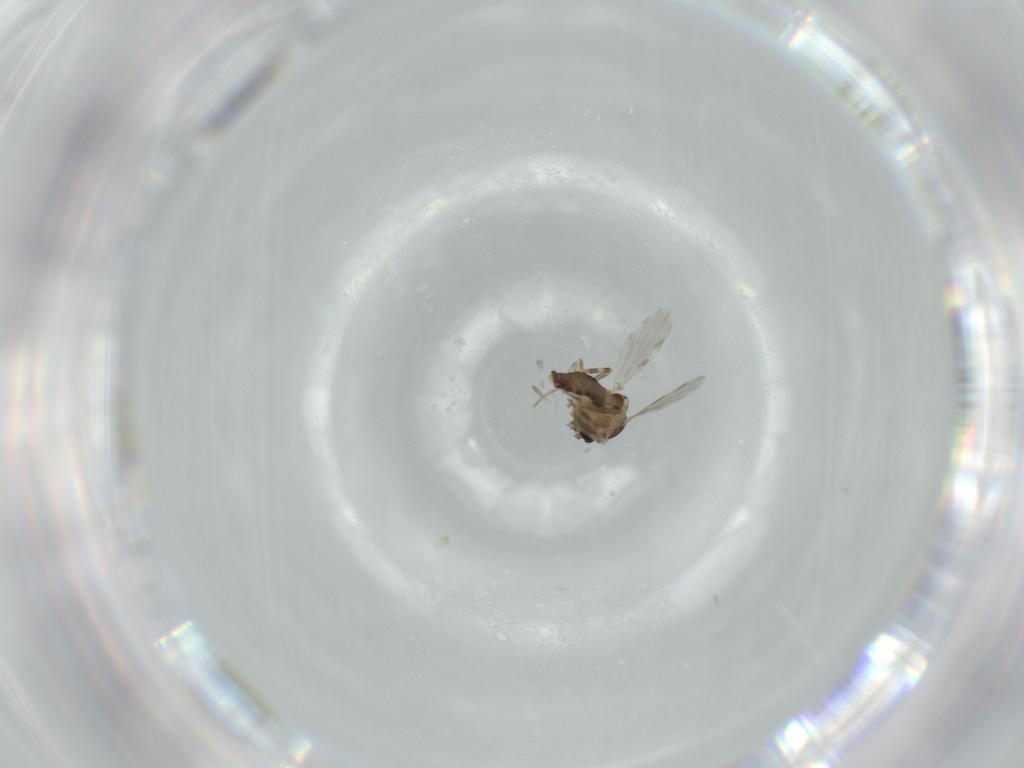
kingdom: Animalia
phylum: Arthropoda
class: Insecta
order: Diptera
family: Ceratopogonidae
